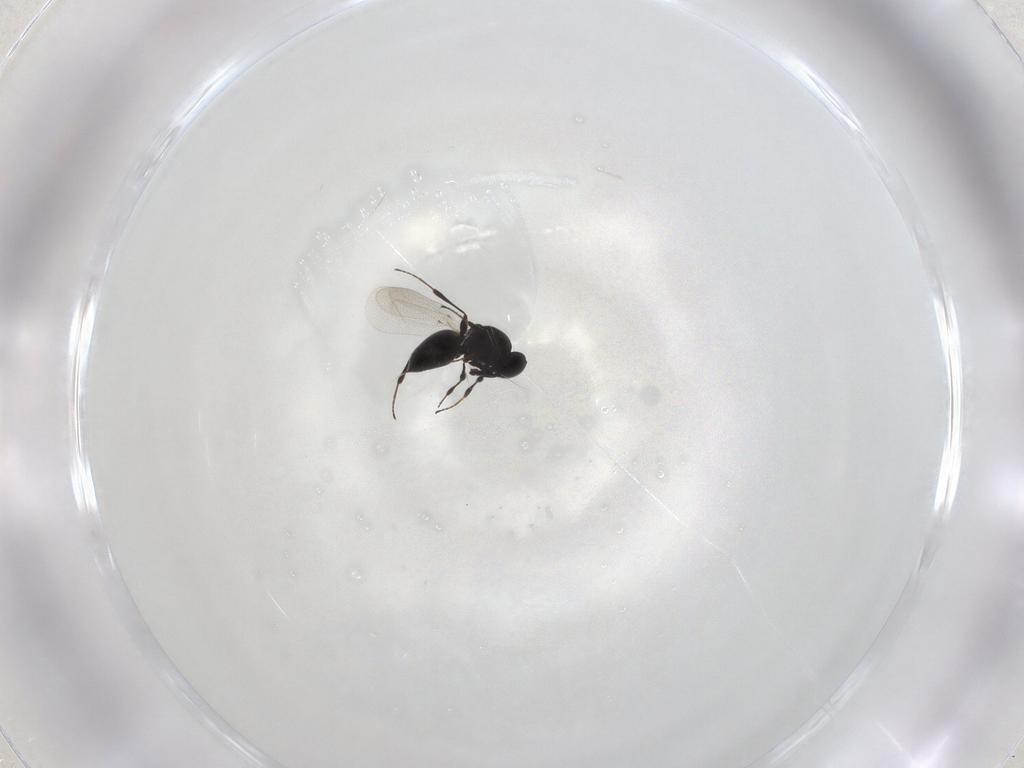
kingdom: Animalia
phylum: Arthropoda
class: Insecta
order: Hymenoptera
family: Platygastridae
